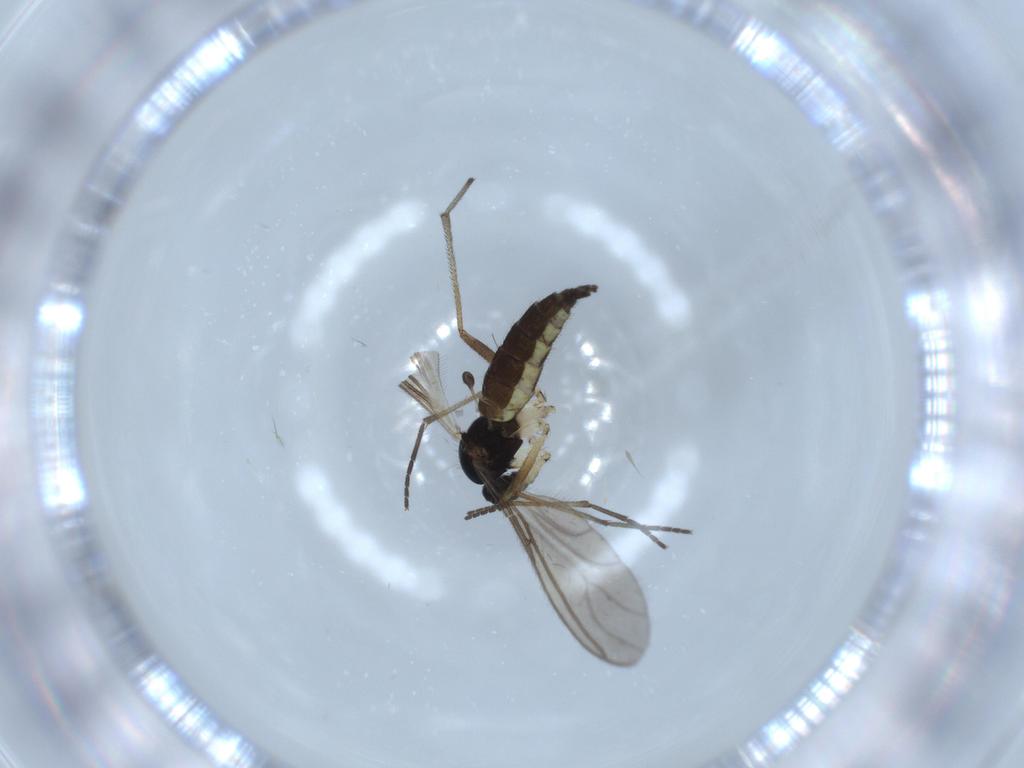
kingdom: Animalia
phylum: Arthropoda
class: Insecta
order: Diptera
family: Sciaridae
